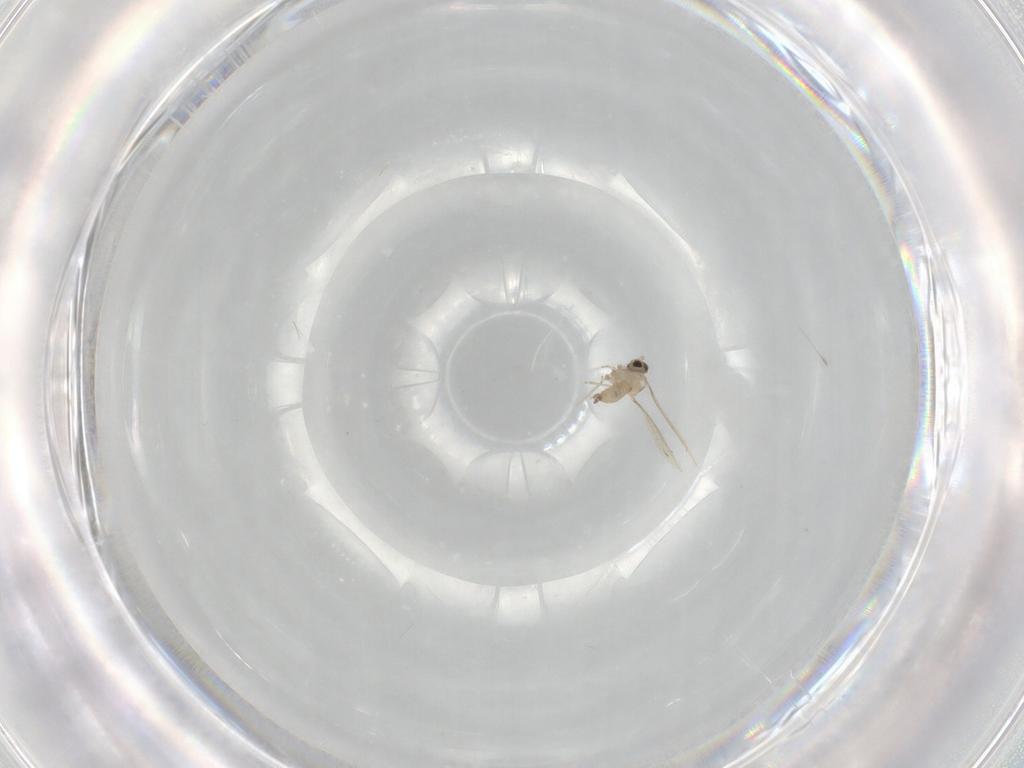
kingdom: Animalia
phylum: Arthropoda
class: Insecta
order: Diptera
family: Cecidomyiidae
